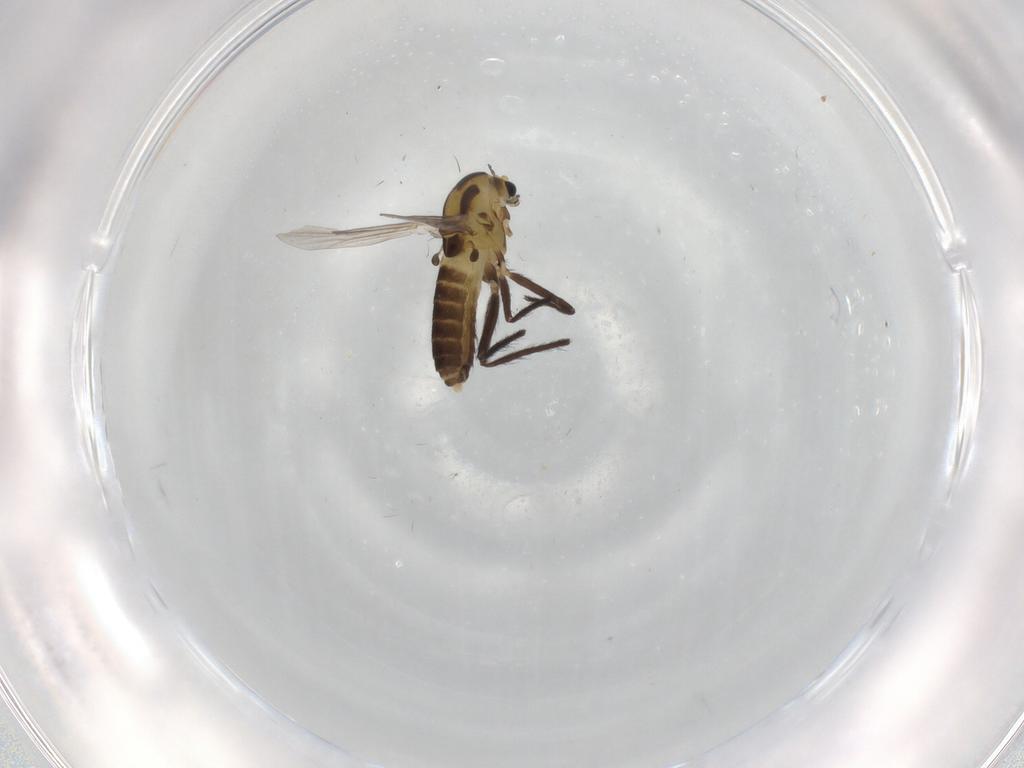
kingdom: Animalia
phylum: Arthropoda
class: Insecta
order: Diptera
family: Chironomidae
